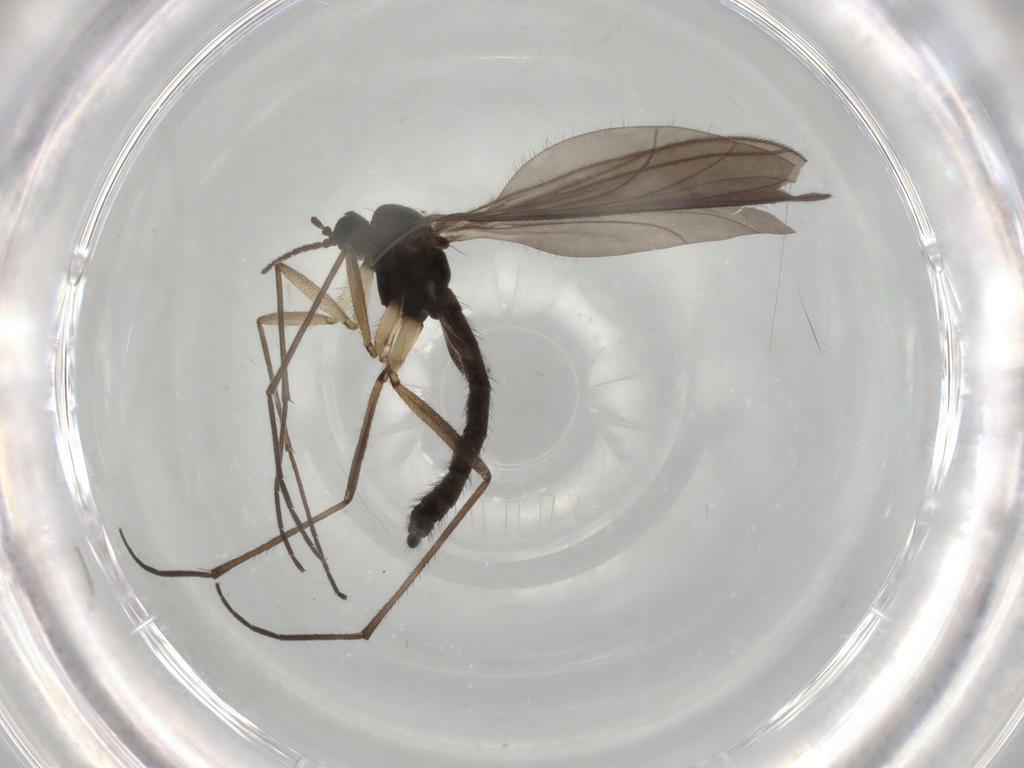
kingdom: Animalia
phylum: Arthropoda
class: Insecta
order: Diptera
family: Sciaridae
